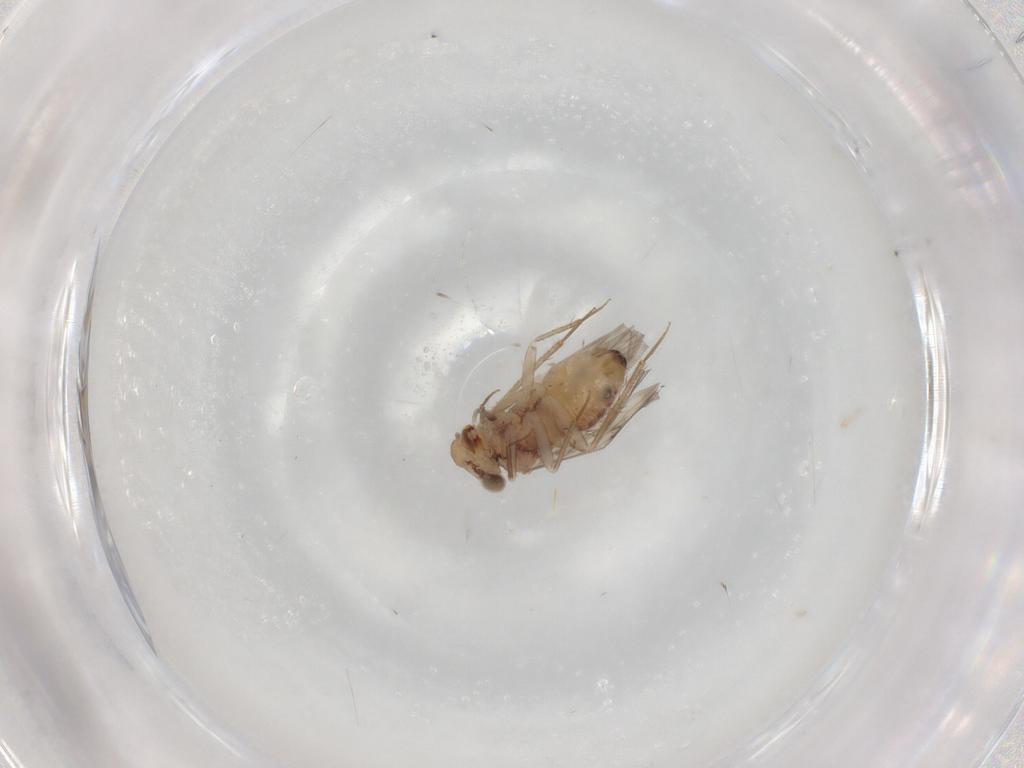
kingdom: Animalia
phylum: Arthropoda
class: Insecta
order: Psocodea
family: Lepidopsocidae
